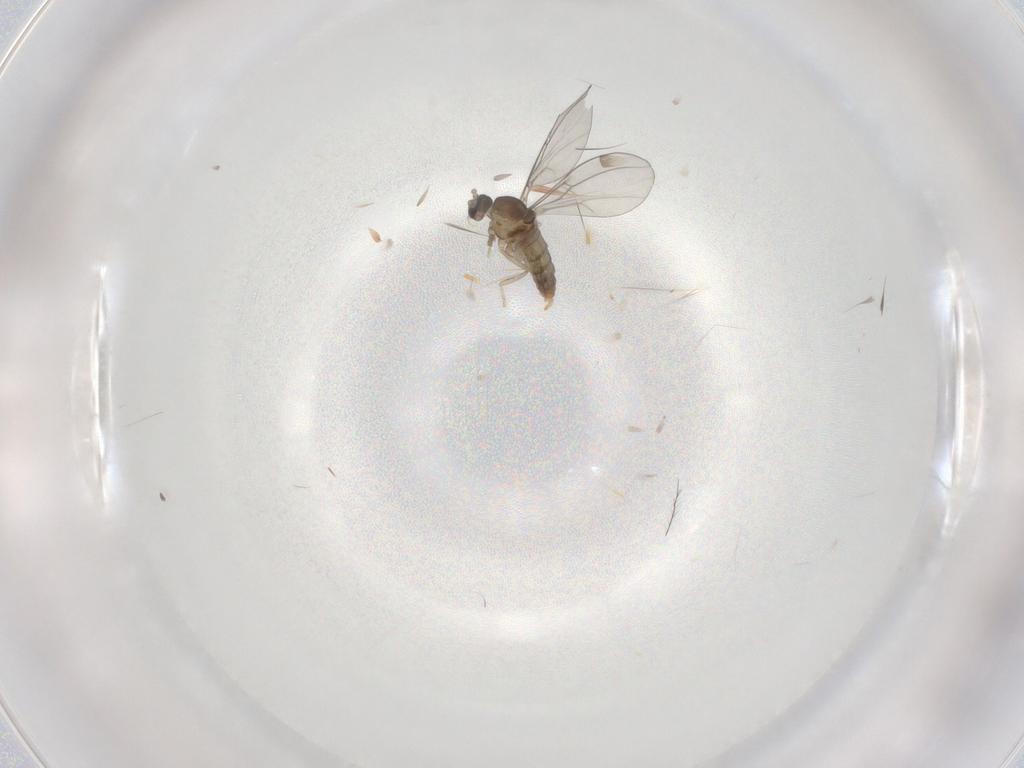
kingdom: Animalia
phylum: Arthropoda
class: Insecta
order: Diptera
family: Cecidomyiidae
